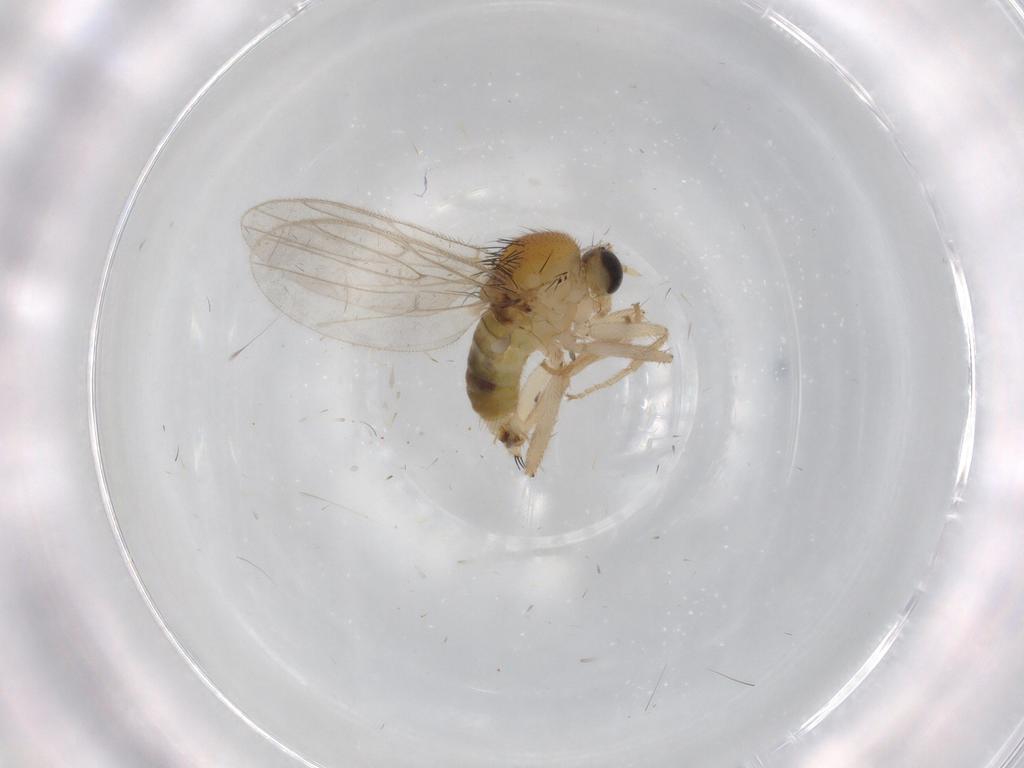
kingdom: Animalia
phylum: Arthropoda
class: Insecta
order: Diptera
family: Hybotidae
